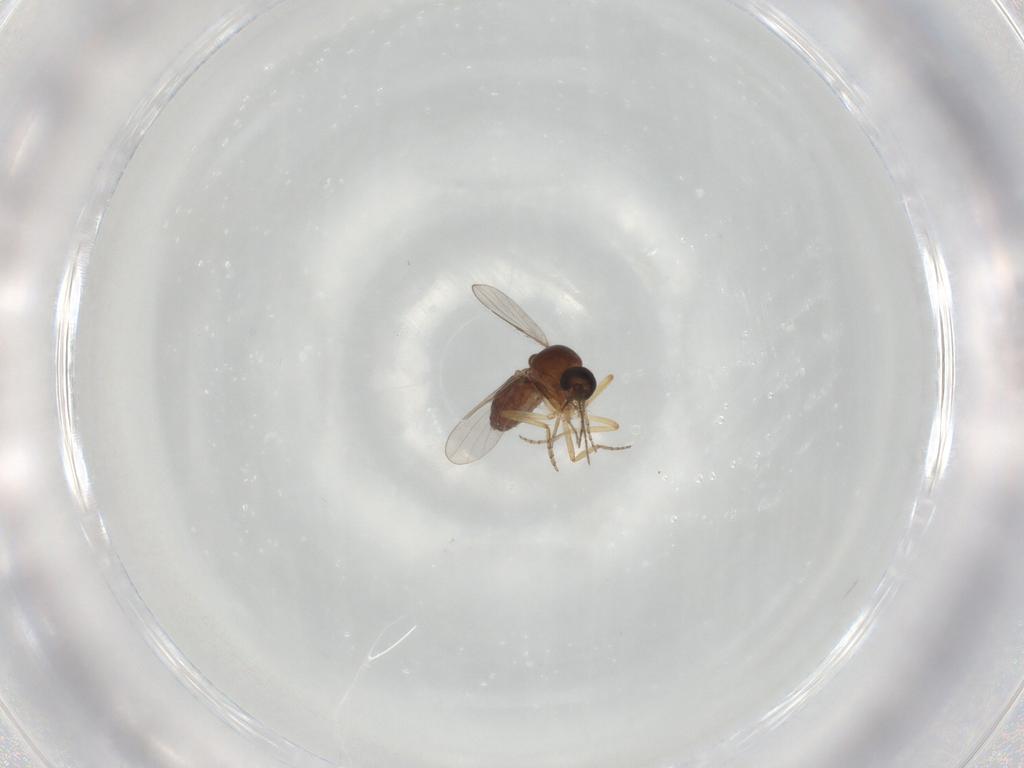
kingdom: Animalia
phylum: Arthropoda
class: Insecta
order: Diptera
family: Ceratopogonidae
